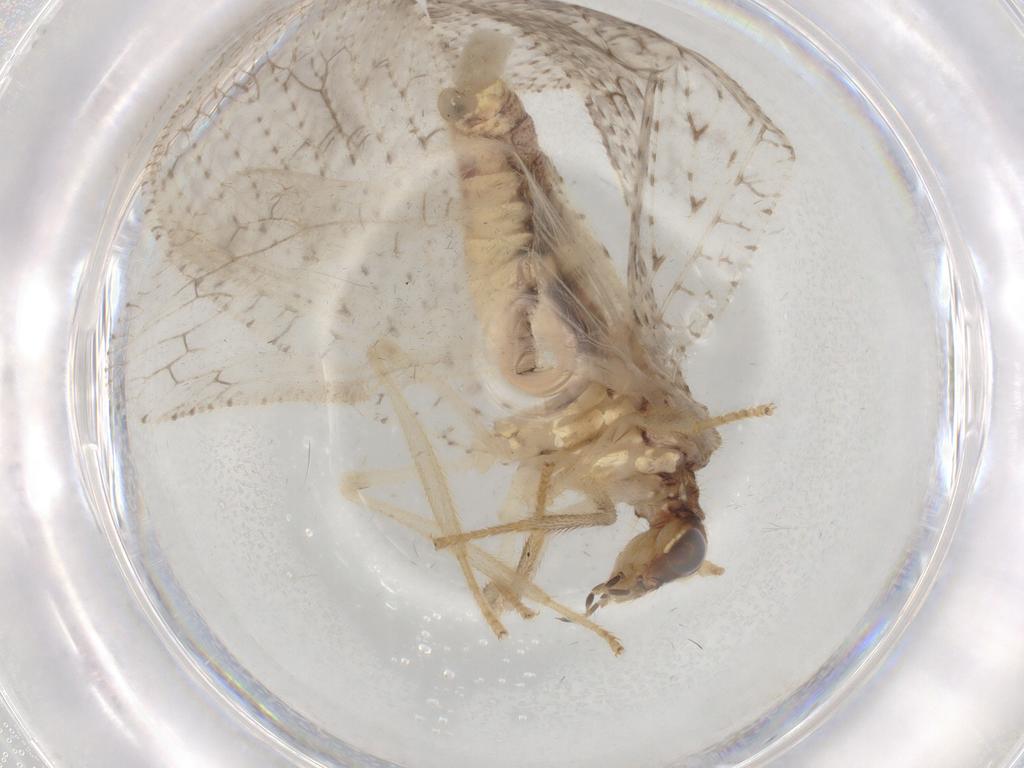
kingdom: Animalia
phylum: Arthropoda
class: Insecta
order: Neuroptera
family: Hemerobiidae
